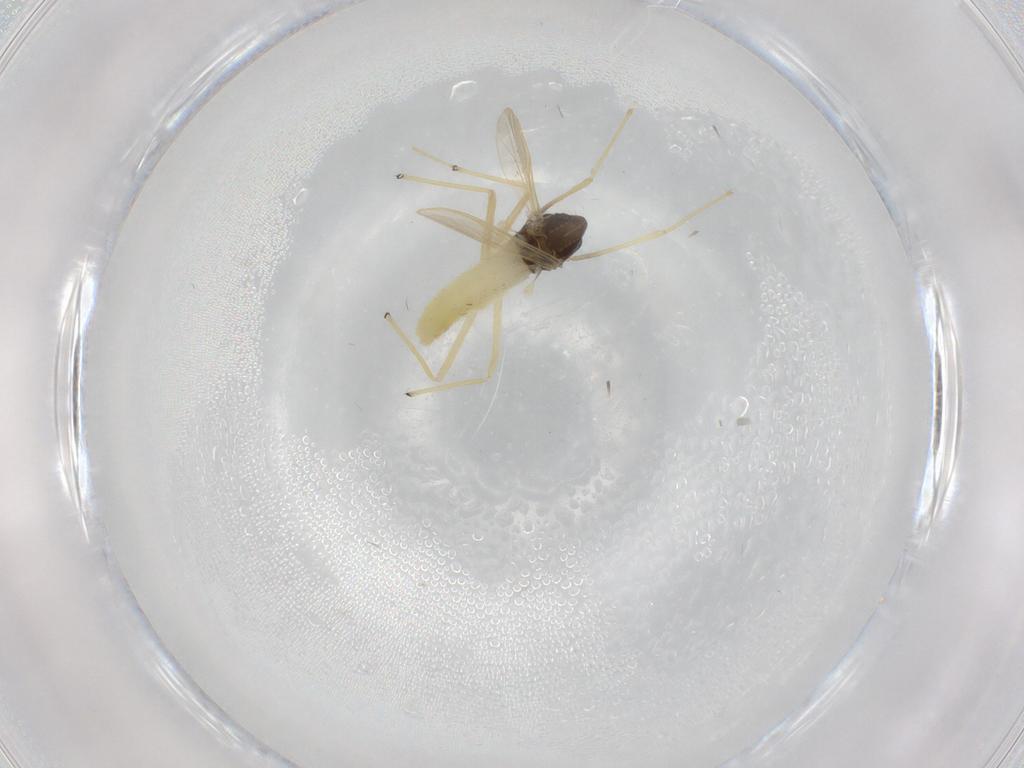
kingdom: Animalia
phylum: Arthropoda
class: Insecta
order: Diptera
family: Chironomidae
